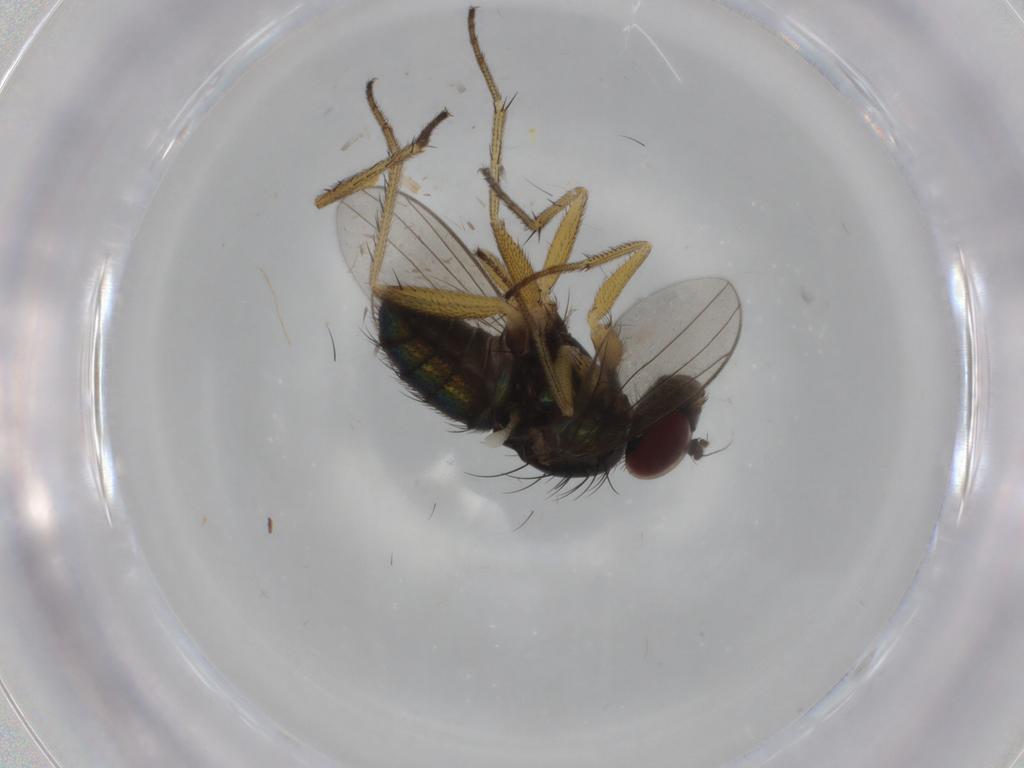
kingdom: Animalia
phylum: Arthropoda
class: Insecta
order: Diptera
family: Dolichopodidae
